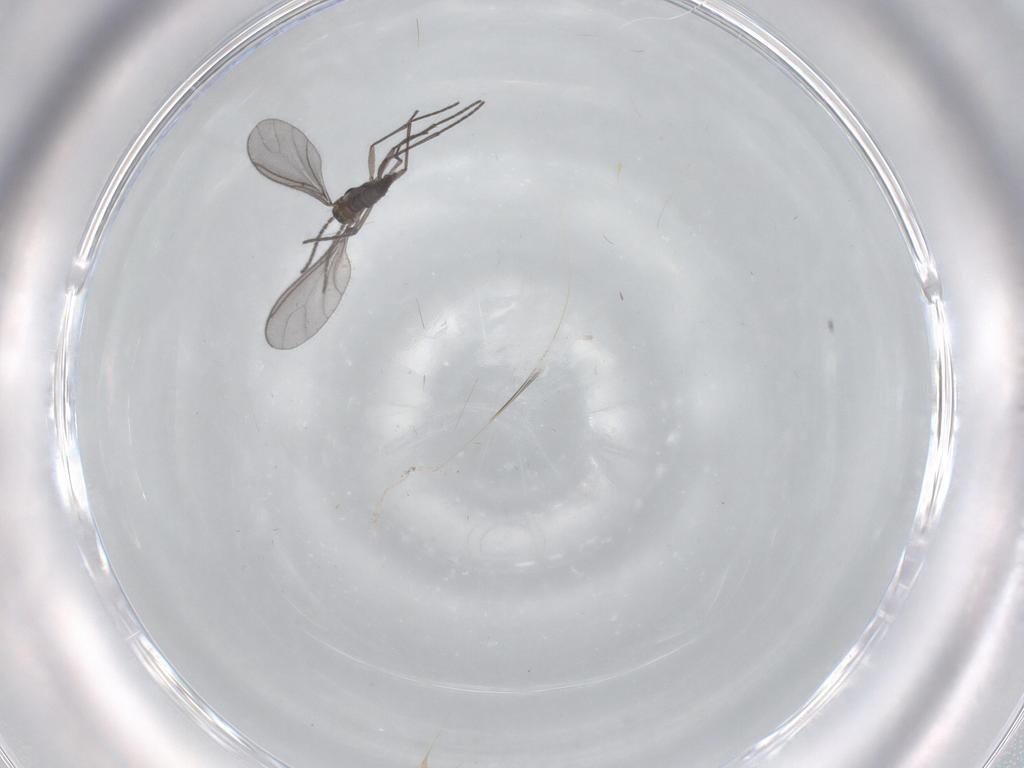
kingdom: Animalia
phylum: Arthropoda
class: Insecta
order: Diptera
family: Sciaridae
